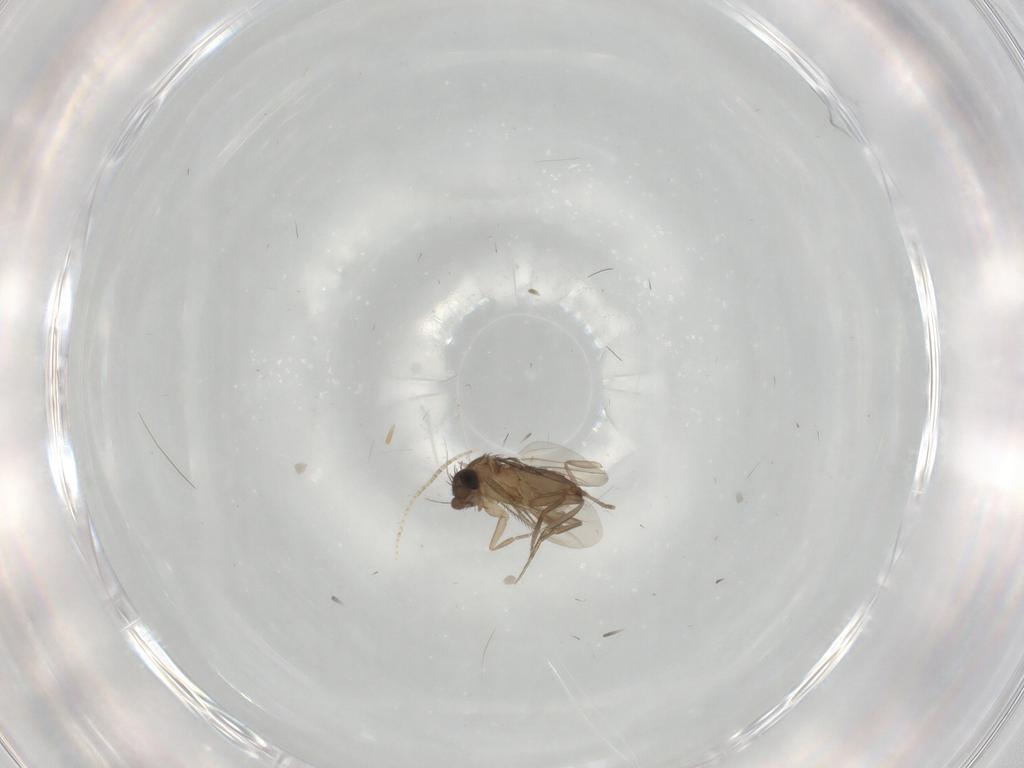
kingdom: Animalia
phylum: Arthropoda
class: Insecta
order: Diptera
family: Phoridae
